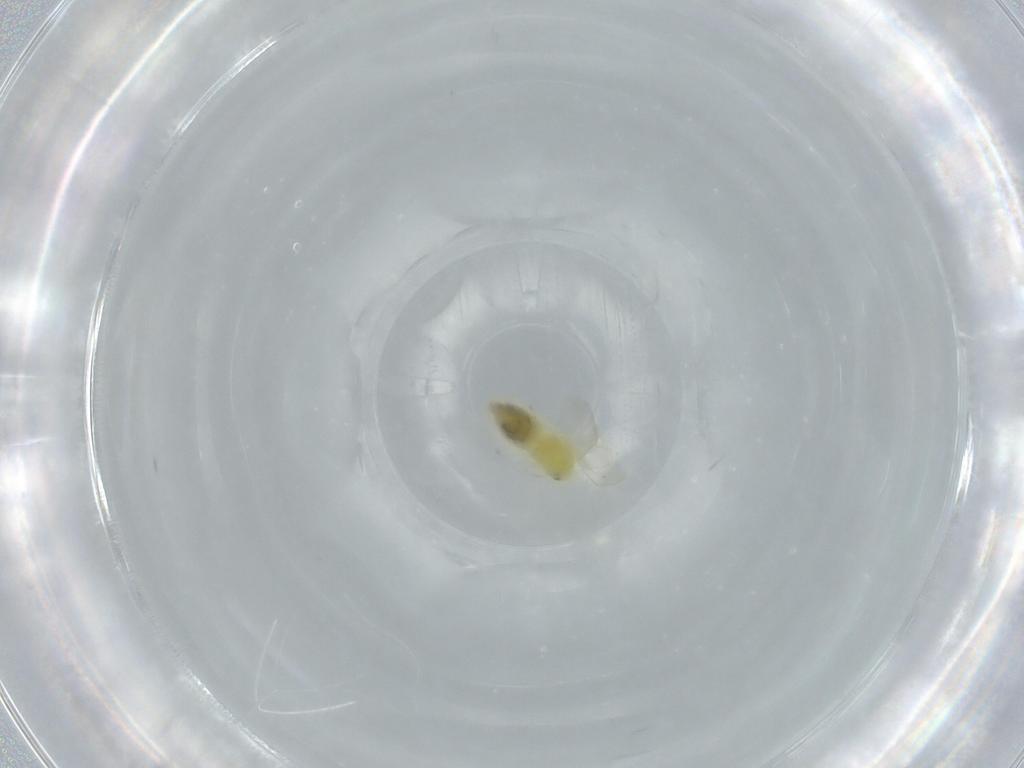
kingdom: Animalia
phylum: Arthropoda
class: Insecta
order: Hemiptera
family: Aleyrodidae
